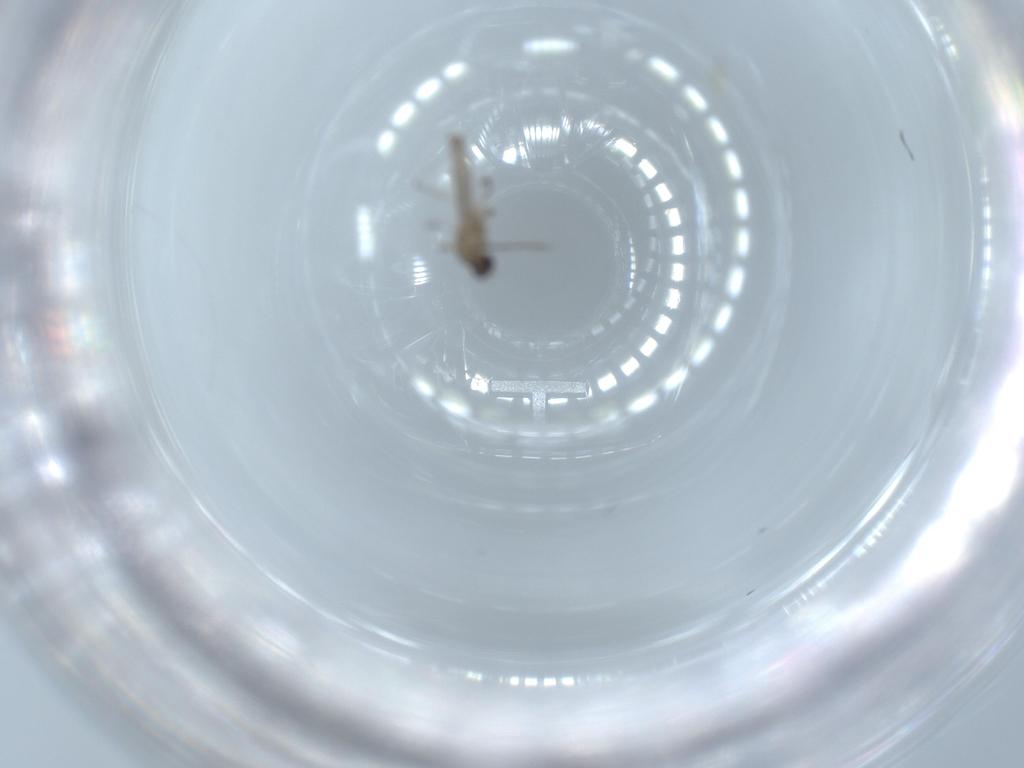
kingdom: Animalia
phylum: Arthropoda
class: Insecta
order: Diptera
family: Cecidomyiidae
